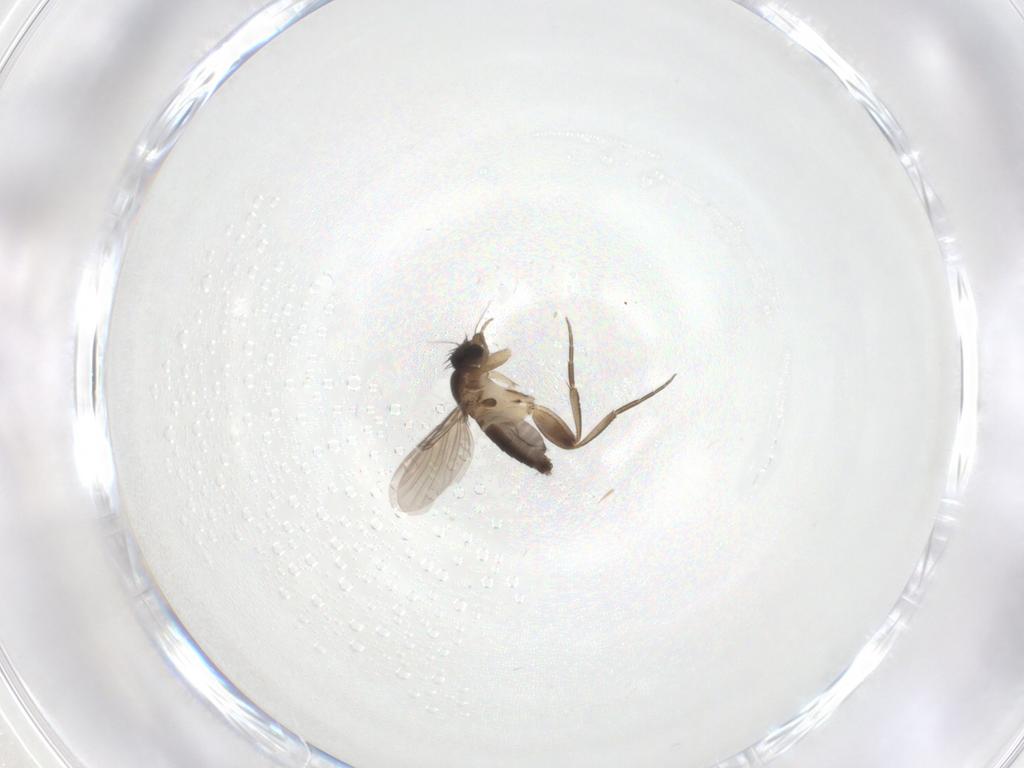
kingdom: Animalia
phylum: Arthropoda
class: Insecta
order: Diptera
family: Phoridae
